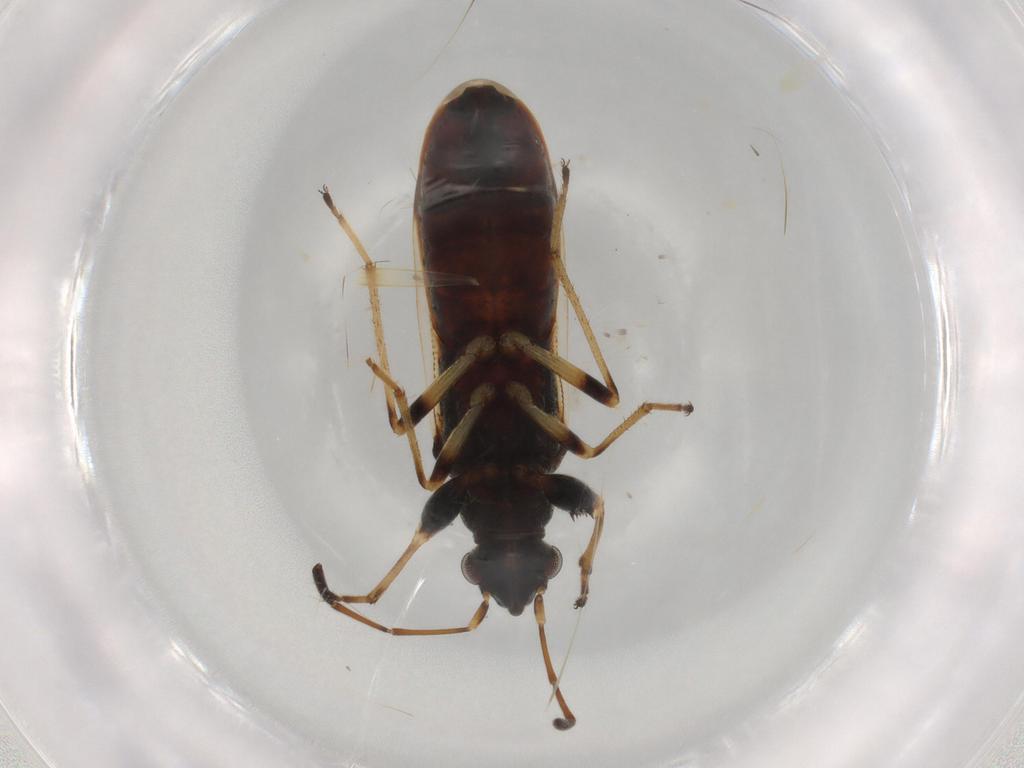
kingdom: Animalia
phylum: Arthropoda
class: Insecta
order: Hemiptera
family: Rhyparochromidae
